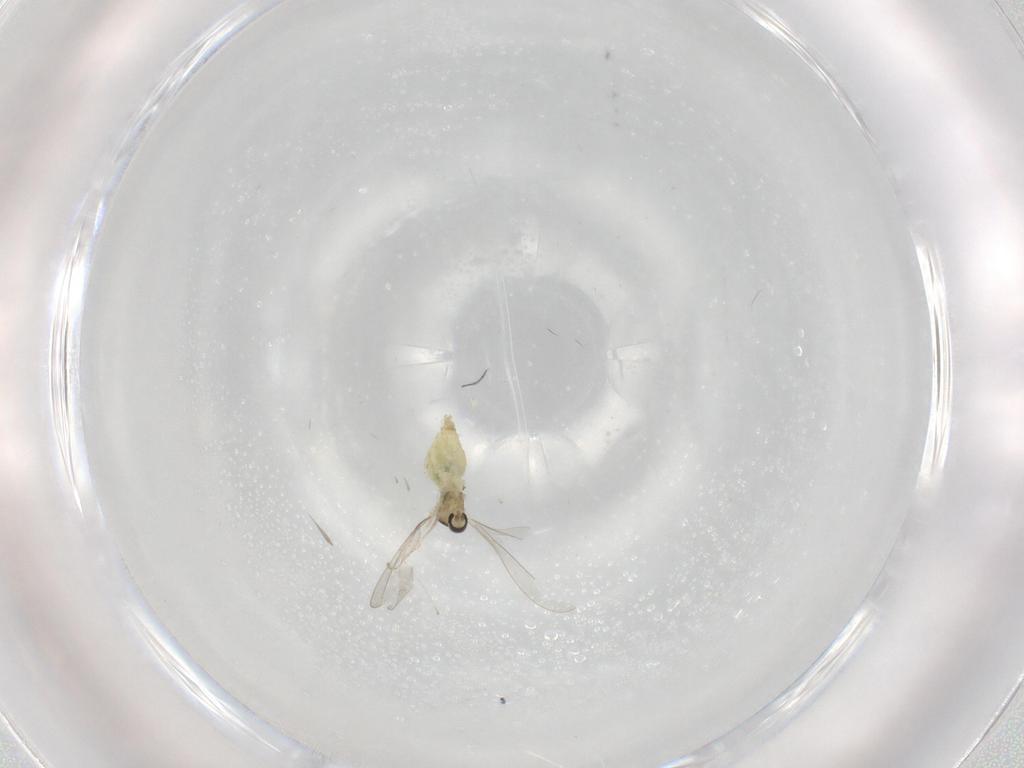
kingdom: Animalia
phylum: Arthropoda
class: Insecta
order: Diptera
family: Cecidomyiidae
